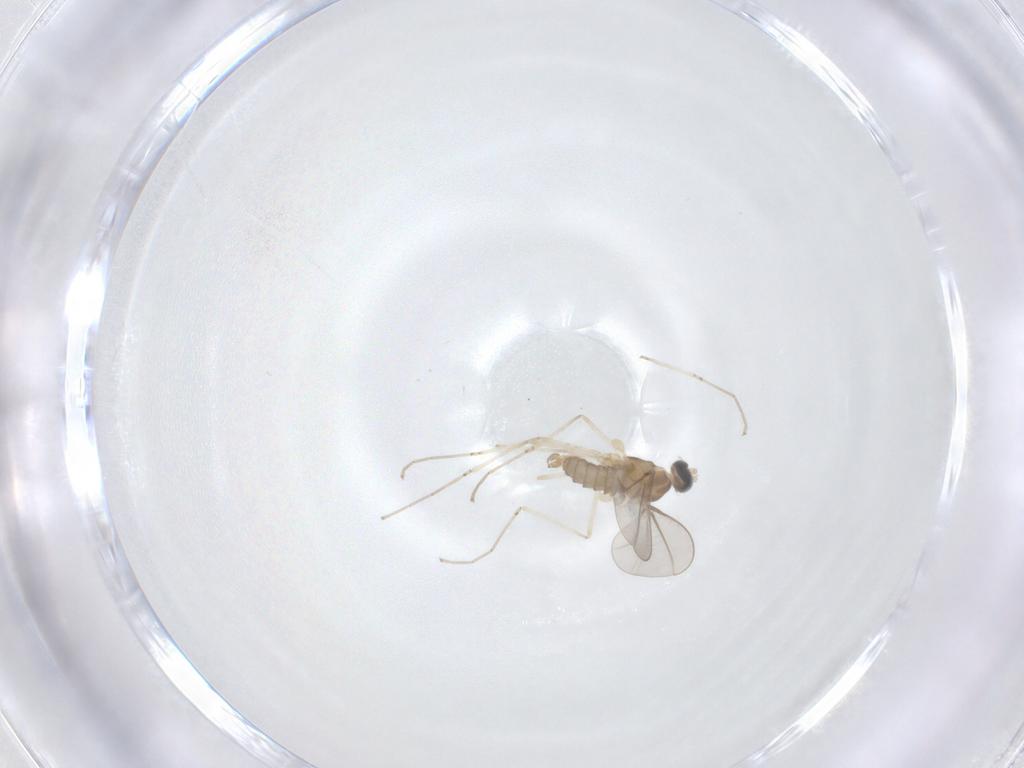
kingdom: Animalia
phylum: Arthropoda
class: Insecta
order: Diptera
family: Cecidomyiidae
